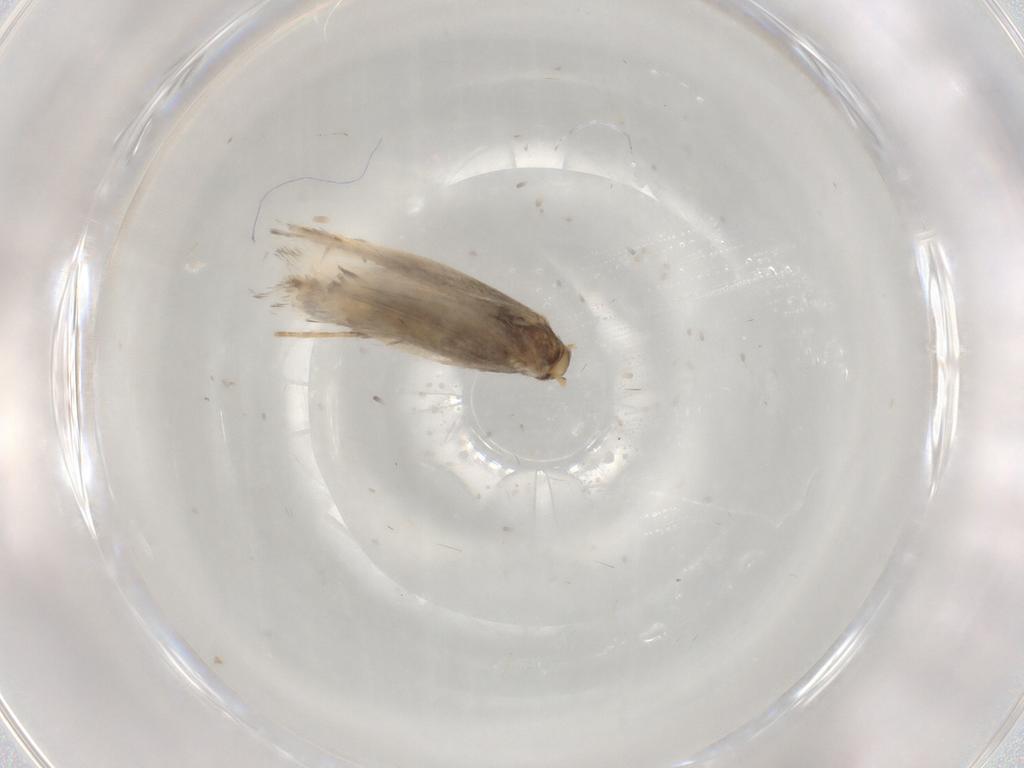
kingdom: Animalia
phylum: Arthropoda
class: Insecta
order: Lepidoptera
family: Gracillariidae
